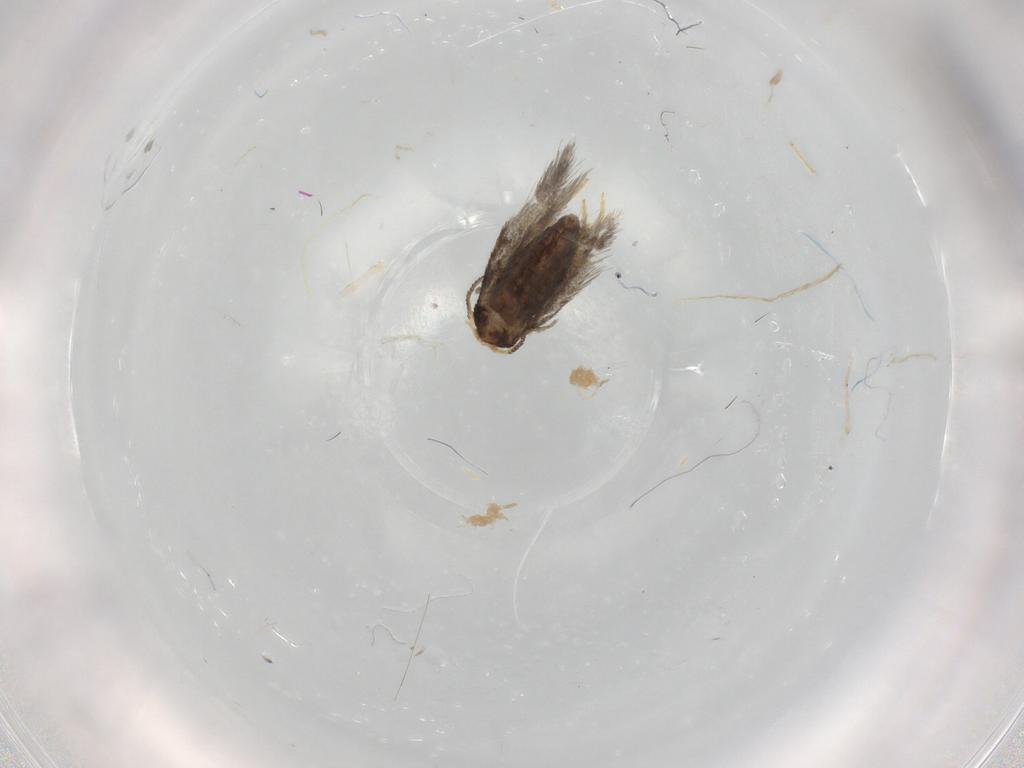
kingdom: Animalia
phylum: Arthropoda
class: Insecta
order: Lepidoptera
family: Nepticulidae
